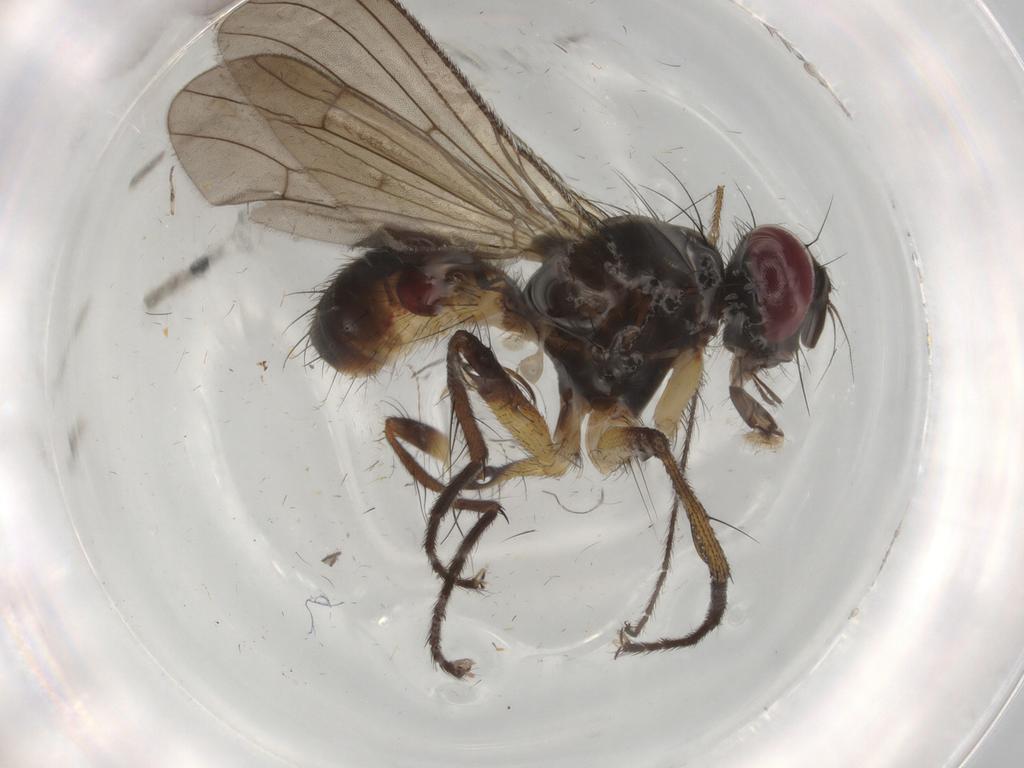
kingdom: Animalia
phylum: Arthropoda
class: Insecta
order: Diptera
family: Muscidae
